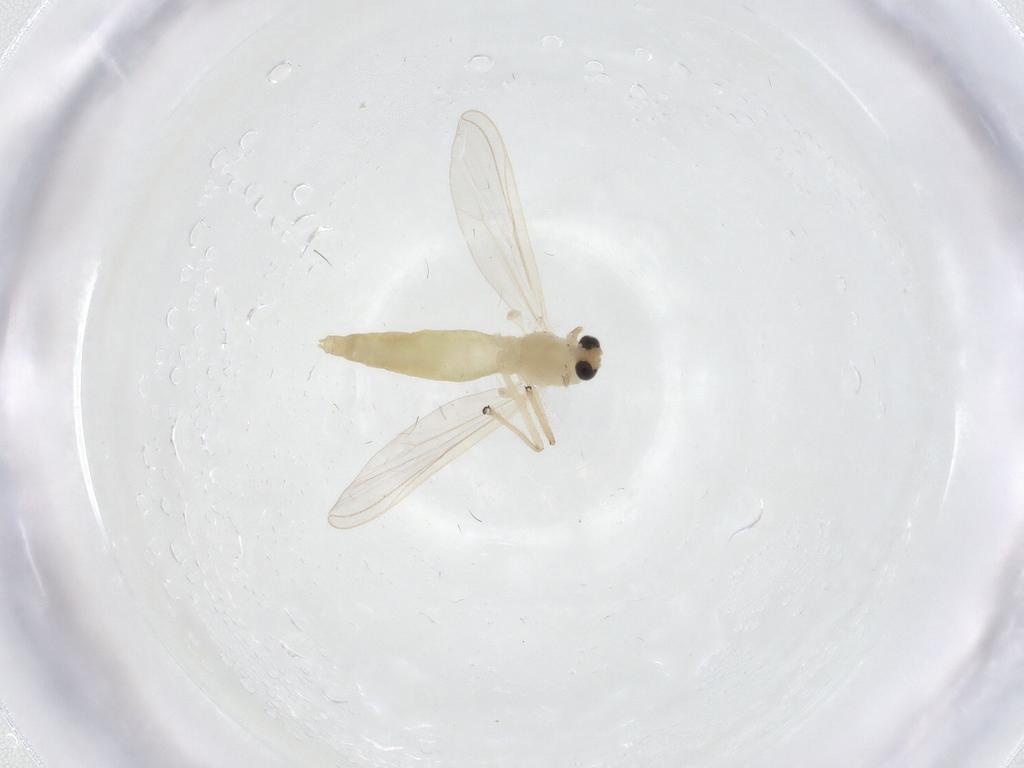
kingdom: Animalia
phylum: Arthropoda
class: Insecta
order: Diptera
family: Chironomidae
